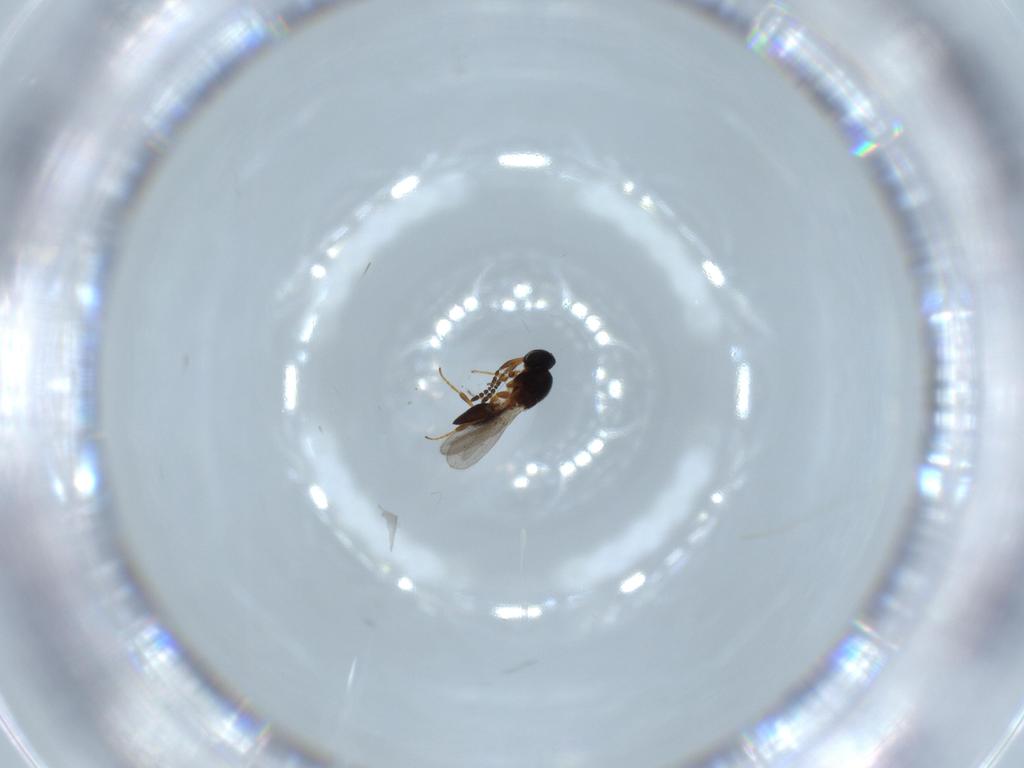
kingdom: Animalia
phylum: Arthropoda
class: Insecta
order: Hymenoptera
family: Platygastridae
